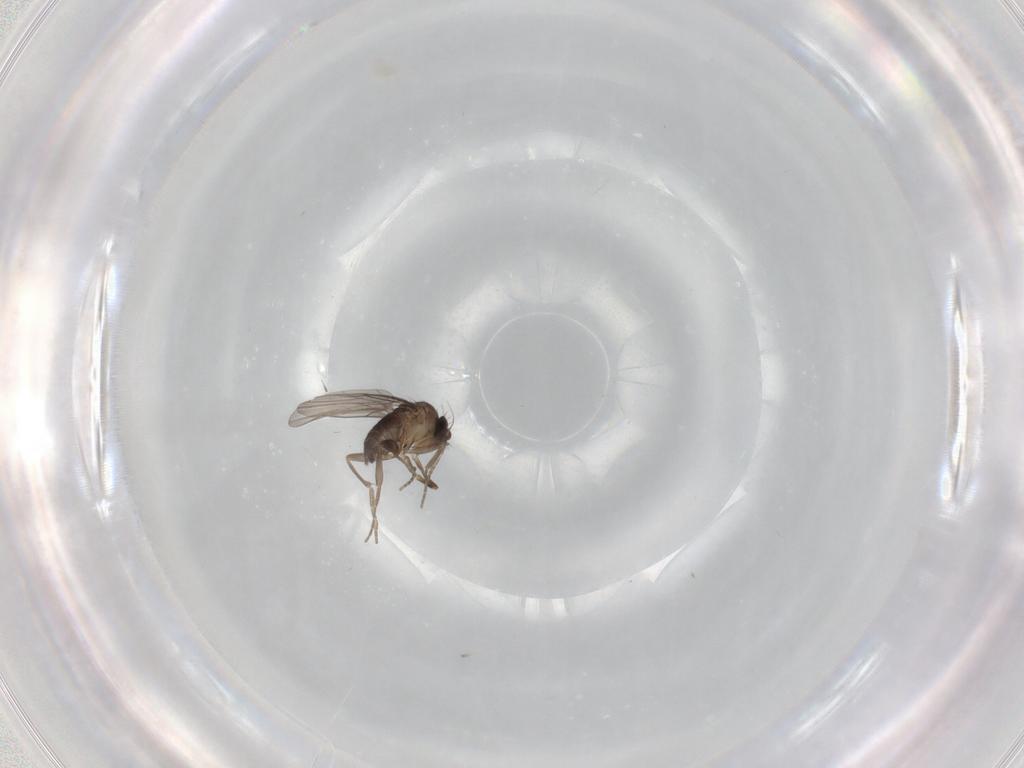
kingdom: Animalia
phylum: Arthropoda
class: Insecta
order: Diptera
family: Phoridae
